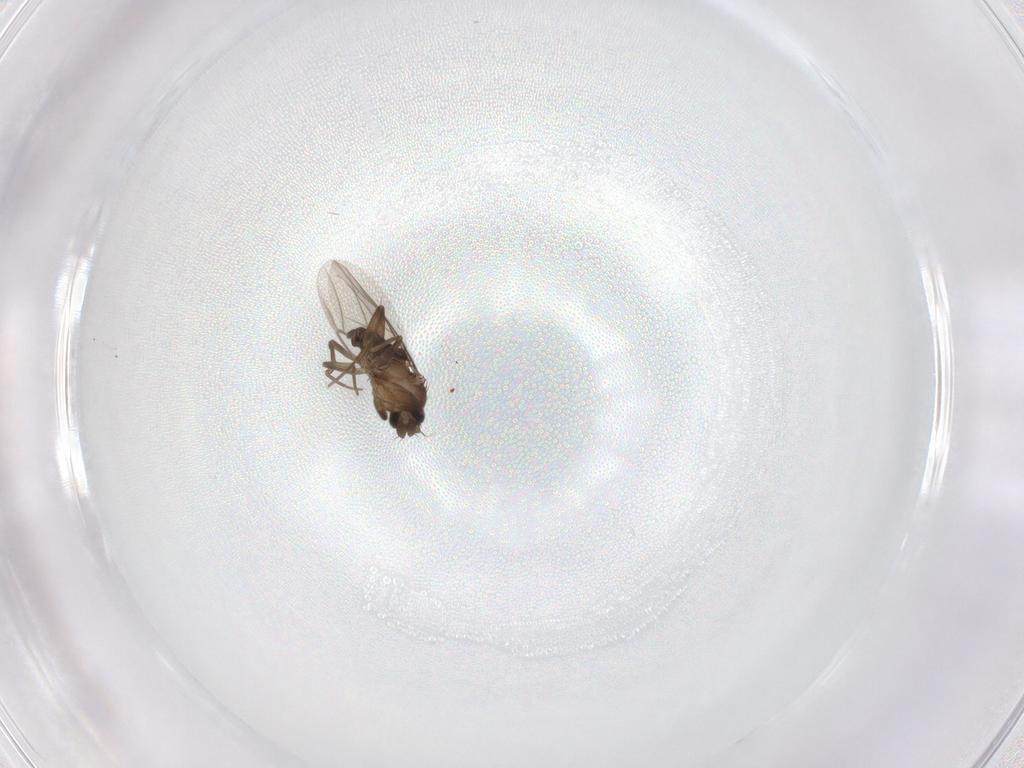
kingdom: Animalia
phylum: Arthropoda
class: Insecta
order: Diptera
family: Phoridae
